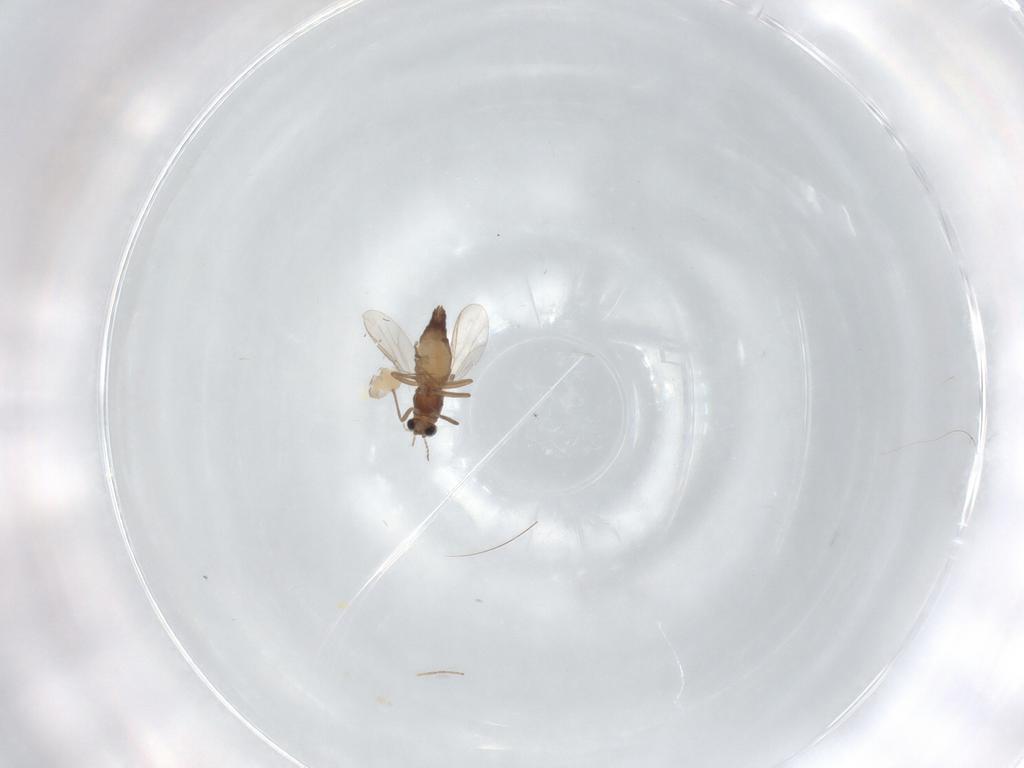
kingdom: Animalia
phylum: Arthropoda
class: Insecta
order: Diptera
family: Chironomidae
